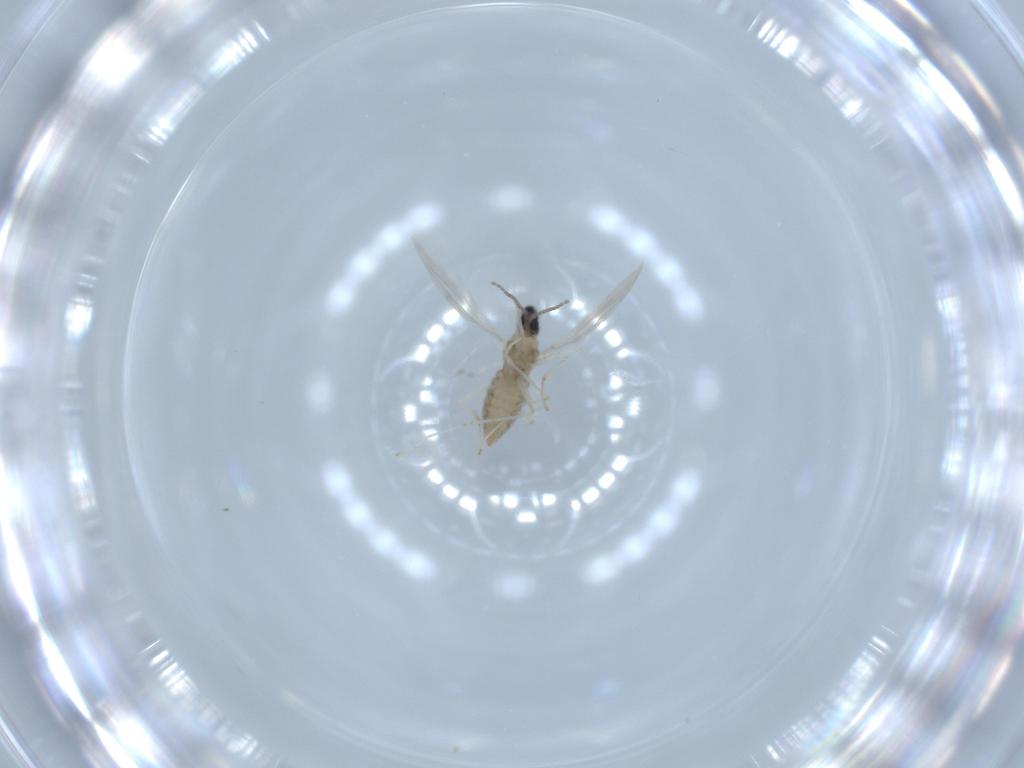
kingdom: Animalia
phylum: Arthropoda
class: Insecta
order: Diptera
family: Cecidomyiidae
